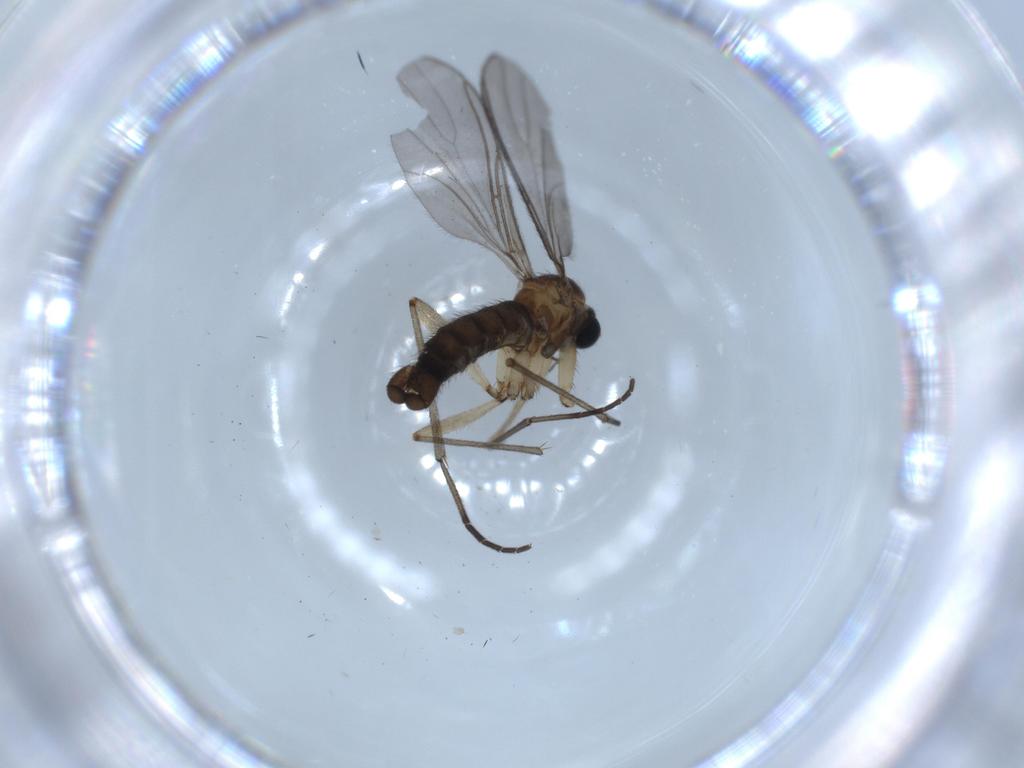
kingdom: Animalia
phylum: Arthropoda
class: Insecta
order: Diptera
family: Sciaridae
